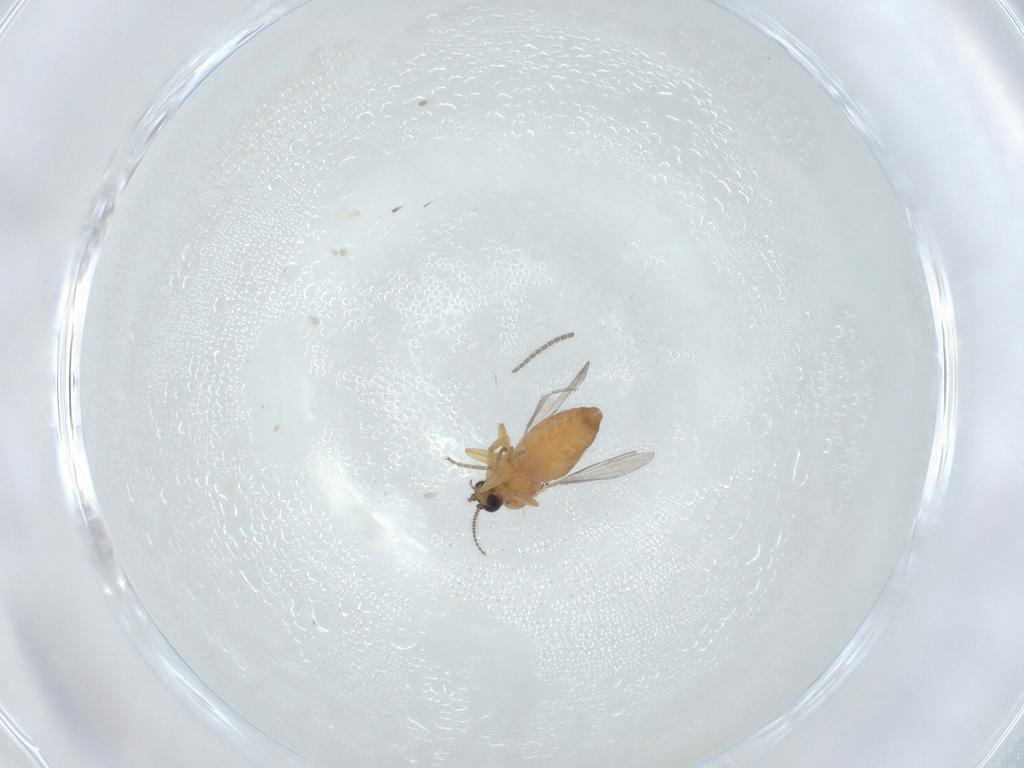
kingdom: Animalia
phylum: Arthropoda
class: Insecta
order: Diptera
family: Ceratopogonidae
